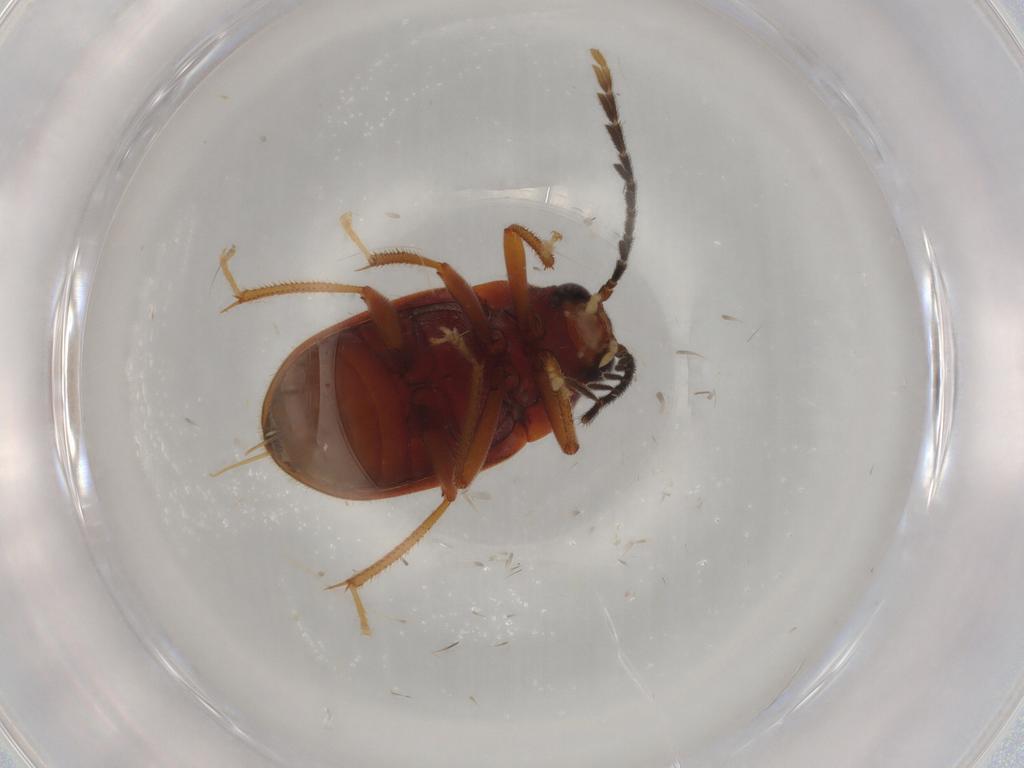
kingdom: Animalia
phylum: Arthropoda
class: Insecta
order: Coleoptera
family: Ptilodactylidae
